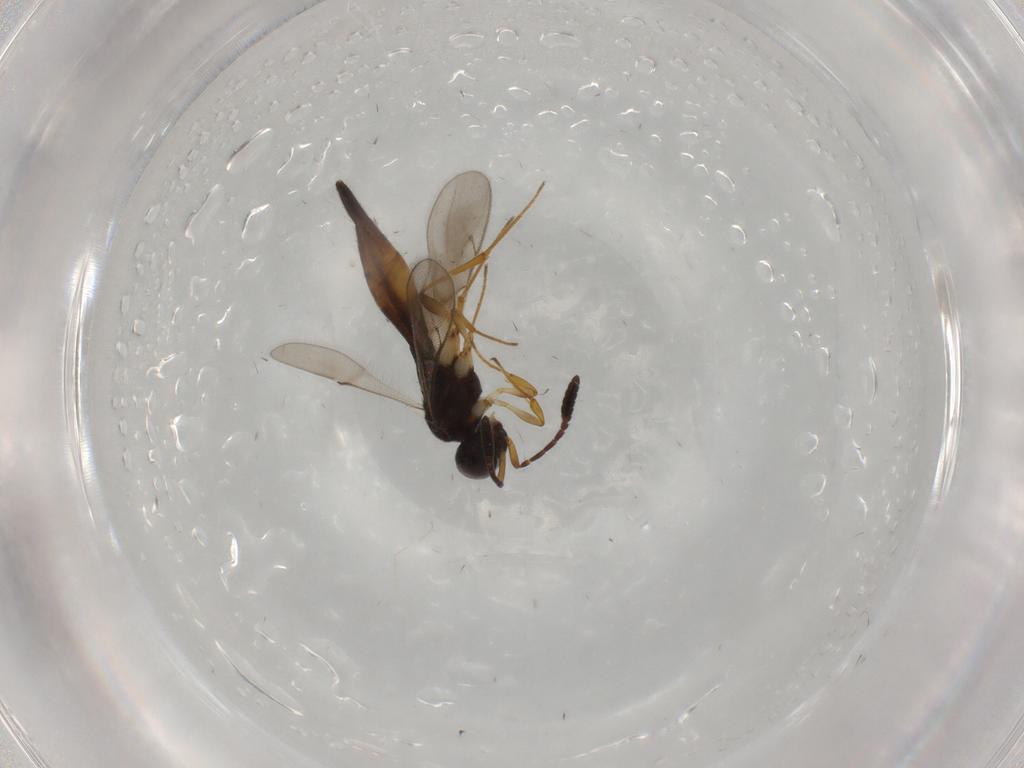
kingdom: Animalia
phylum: Arthropoda
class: Insecta
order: Hymenoptera
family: Scelionidae
